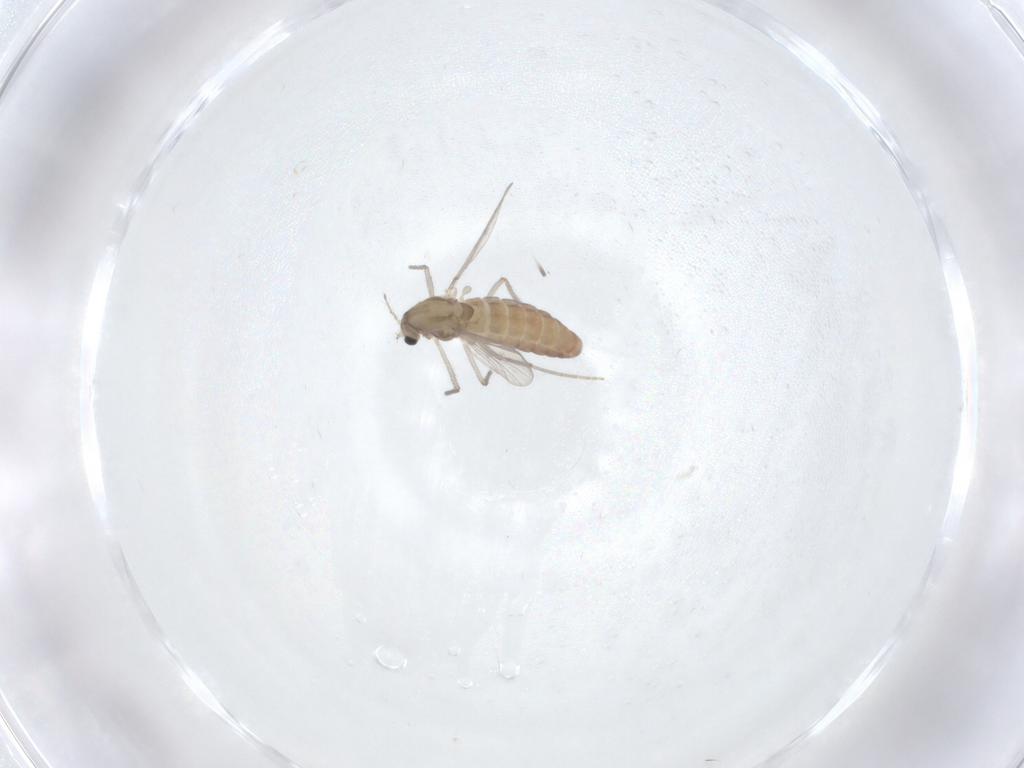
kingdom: Animalia
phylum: Arthropoda
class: Insecta
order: Diptera
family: Chironomidae
